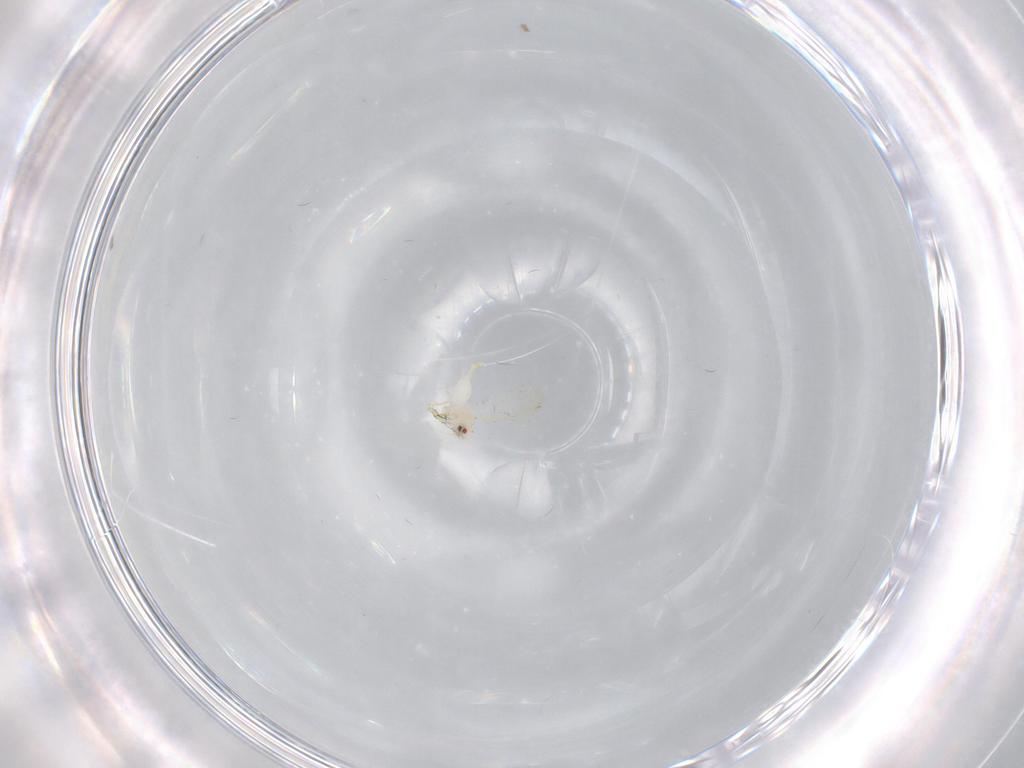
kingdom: Animalia
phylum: Arthropoda
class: Insecta
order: Hemiptera
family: Aleyrodidae
